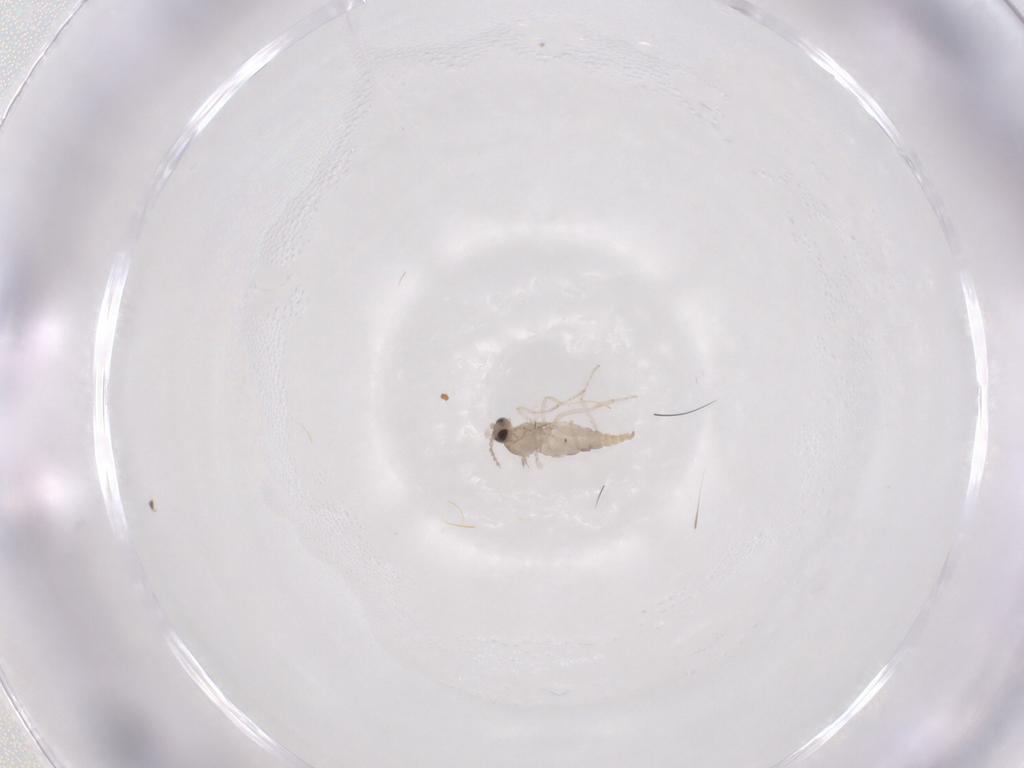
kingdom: Animalia
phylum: Arthropoda
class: Insecta
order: Diptera
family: Cecidomyiidae
